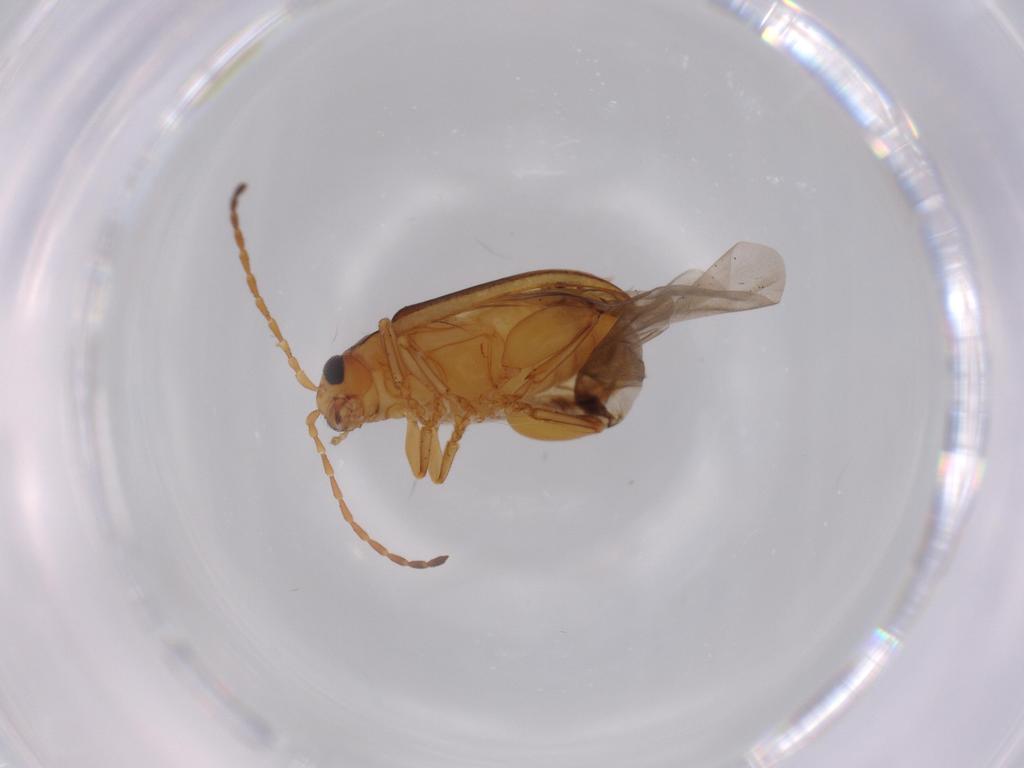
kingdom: Animalia
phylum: Arthropoda
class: Insecta
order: Coleoptera
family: Chrysomelidae
